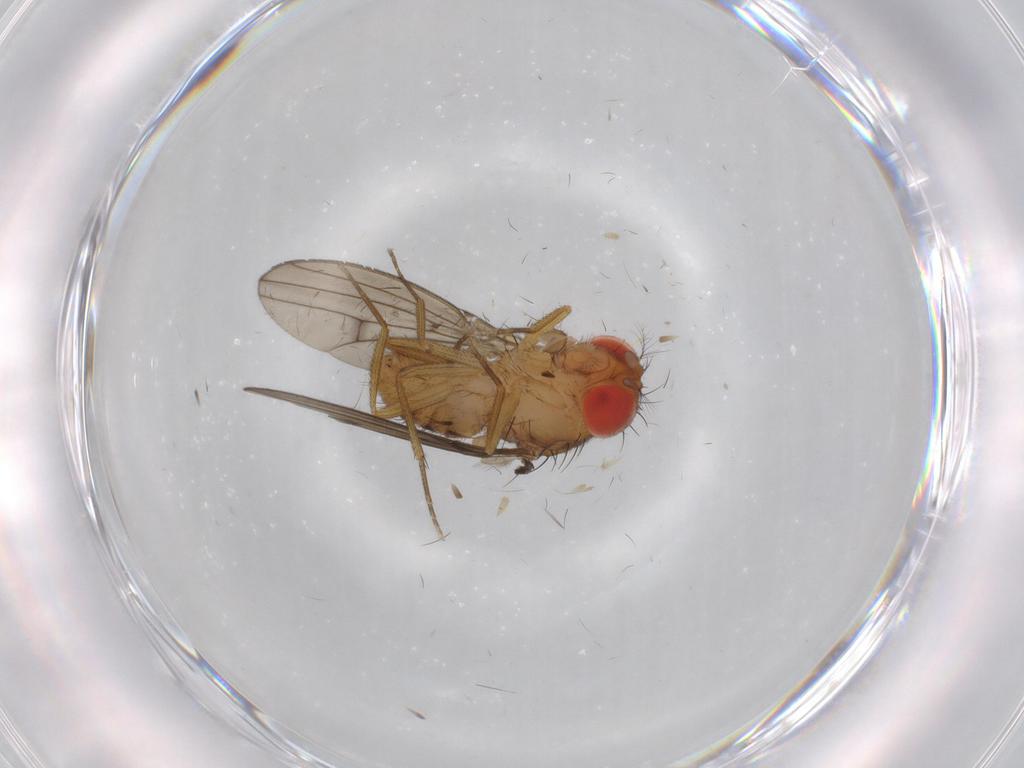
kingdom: Animalia
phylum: Arthropoda
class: Insecta
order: Diptera
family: Drosophilidae
